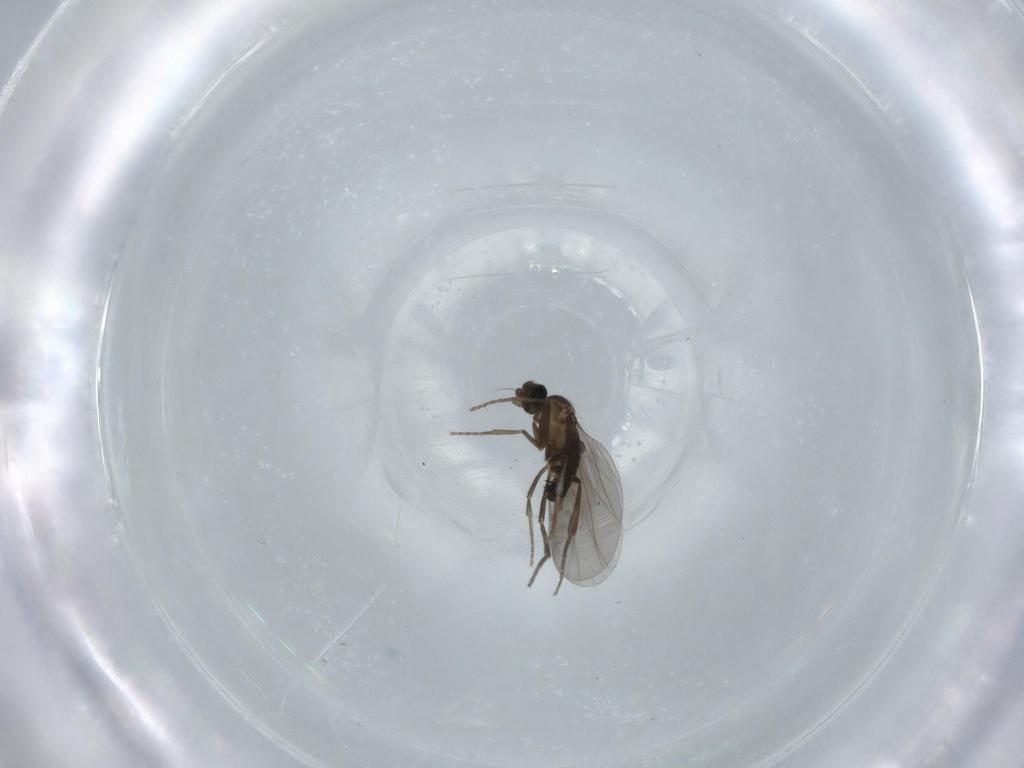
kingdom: Animalia
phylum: Arthropoda
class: Insecta
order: Diptera
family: Phoridae
